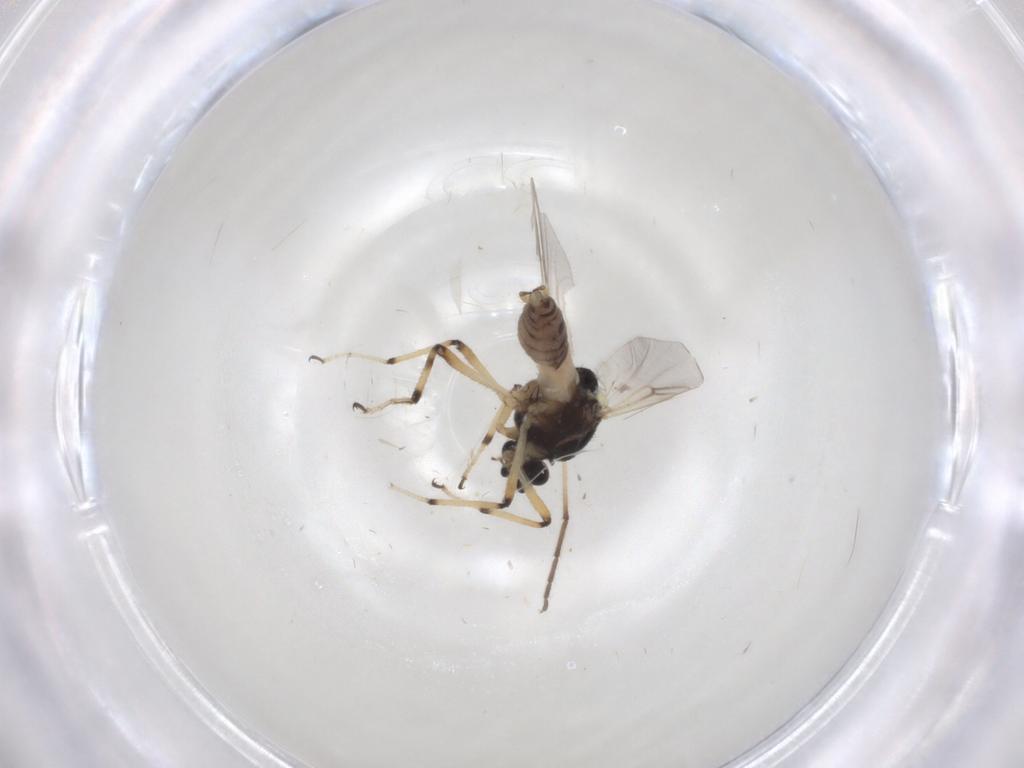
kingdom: Animalia
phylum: Arthropoda
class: Insecta
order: Diptera
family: Ceratopogonidae
